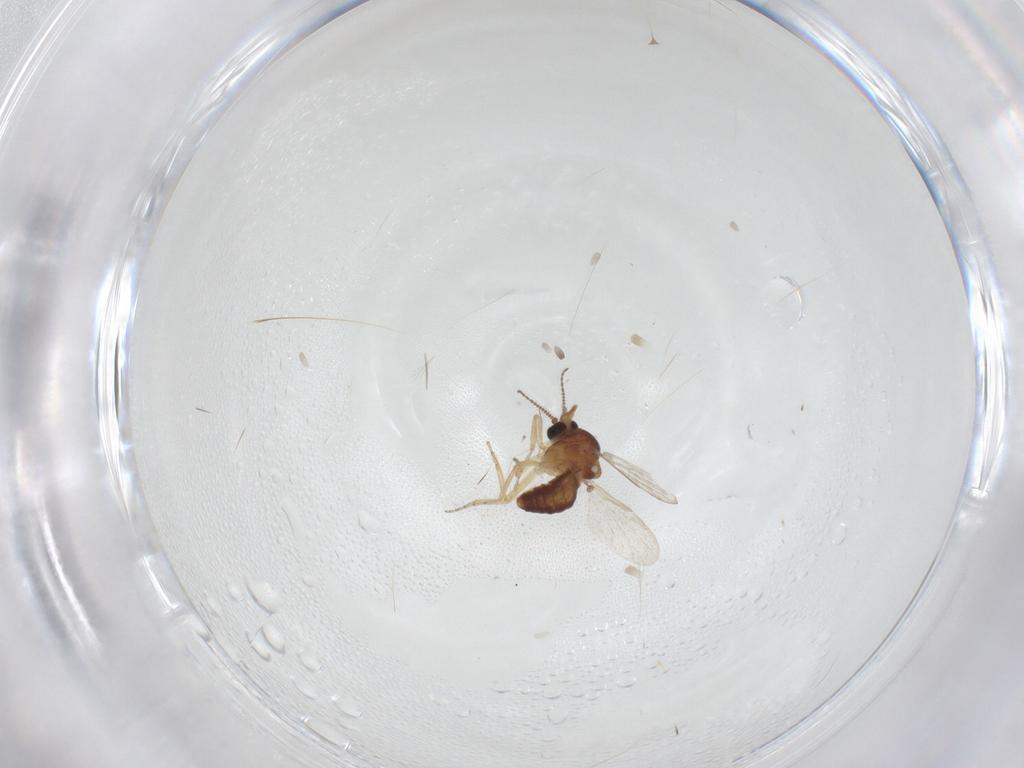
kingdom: Animalia
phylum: Arthropoda
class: Insecta
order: Diptera
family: Ceratopogonidae
